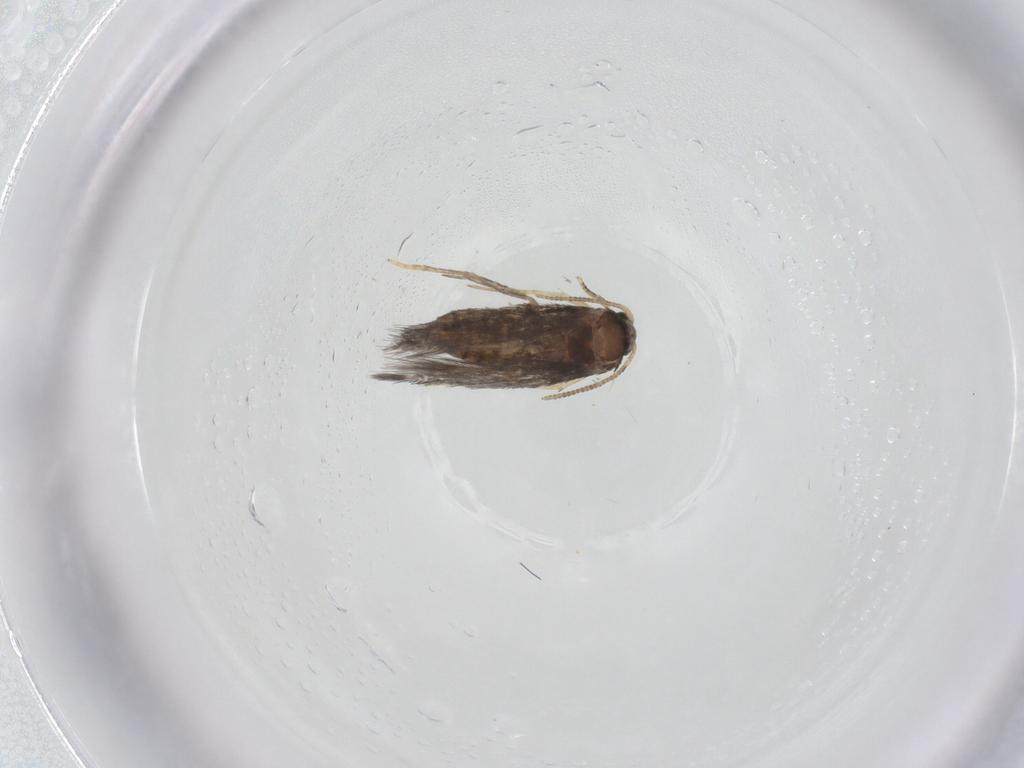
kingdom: Animalia
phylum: Arthropoda
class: Insecta
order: Lepidoptera
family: Nepticulidae
